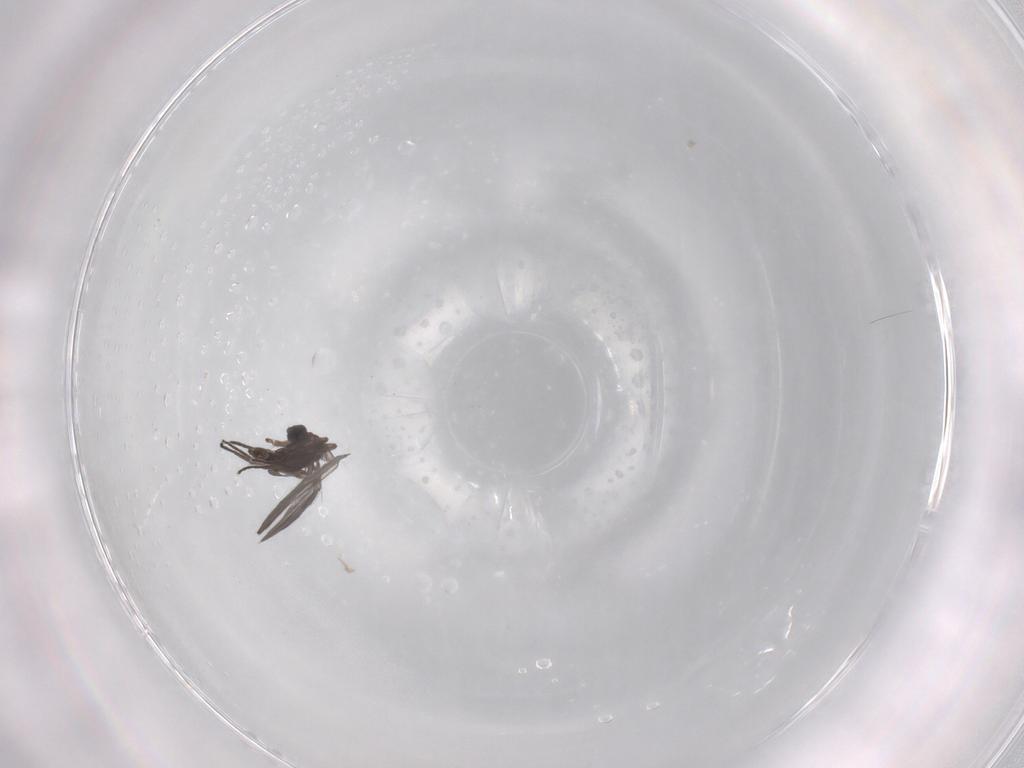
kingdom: Animalia
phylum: Arthropoda
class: Insecta
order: Diptera
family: Sciaridae
